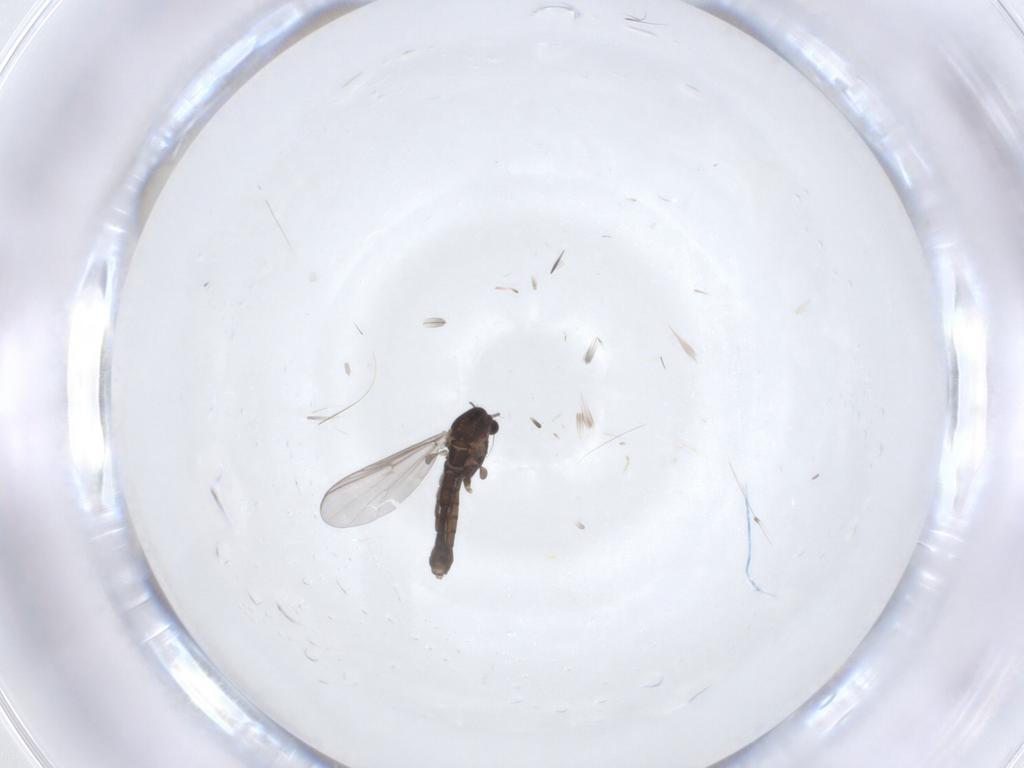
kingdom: Animalia
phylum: Arthropoda
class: Insecta
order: Diptera
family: Chironomidae
